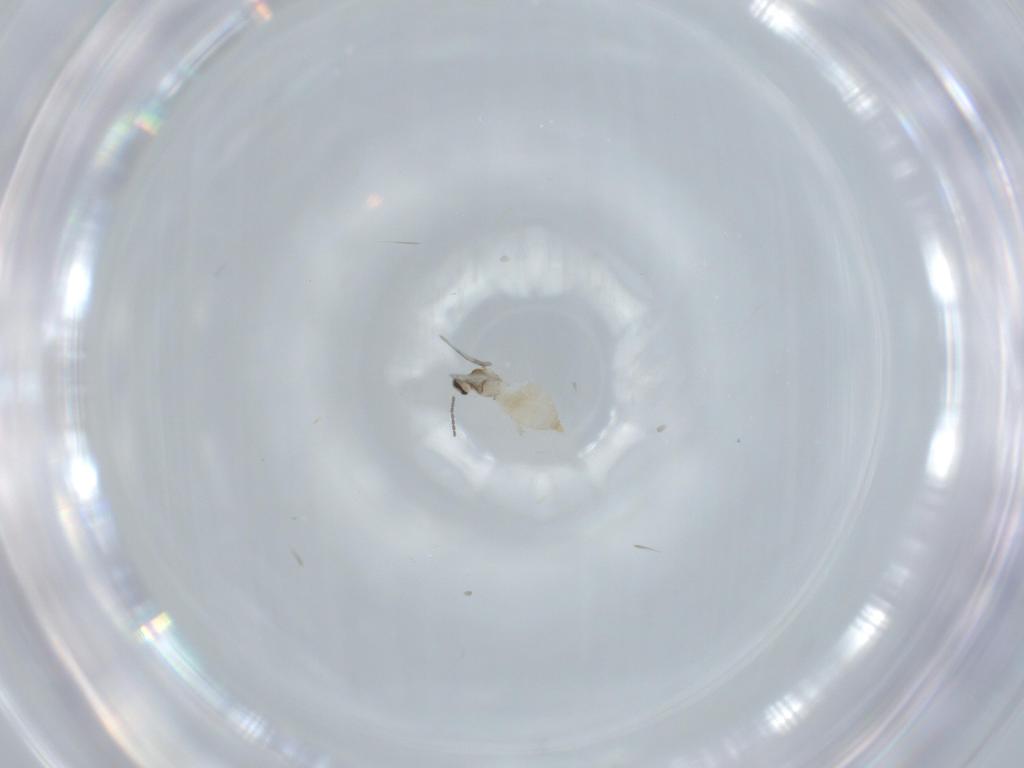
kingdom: Animalia
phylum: Arthropoda
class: Insecta
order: Diptera
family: Cecidomyiidae
